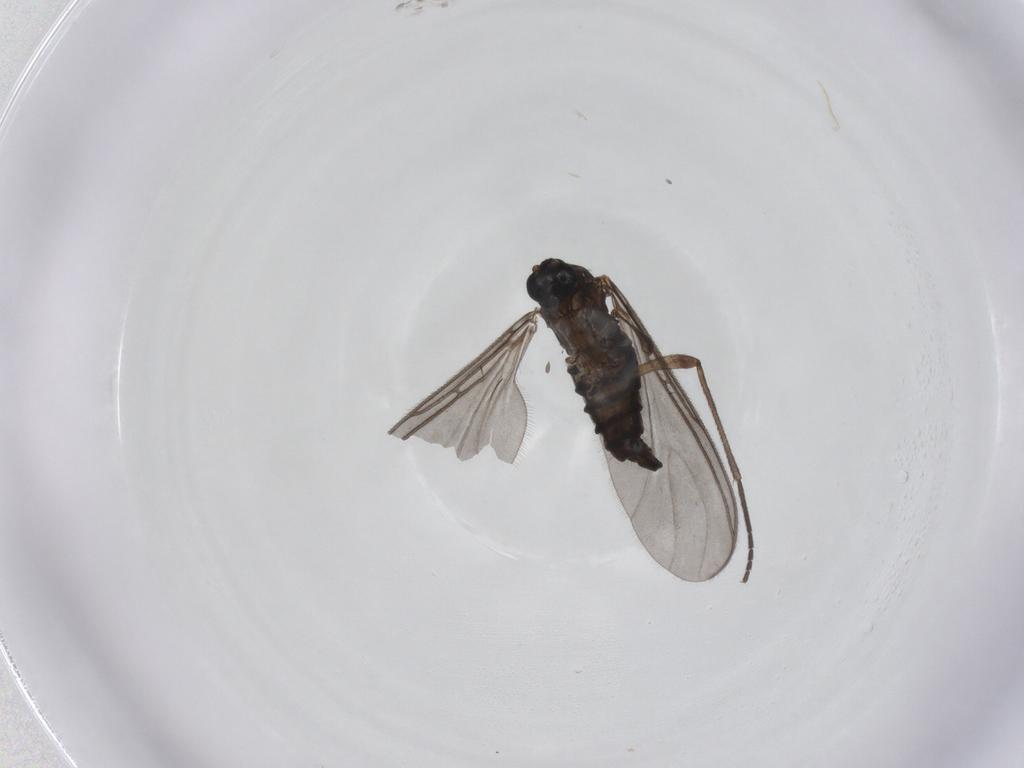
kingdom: Animalia
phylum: Arthropoda
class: Insecta
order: Diptera
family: Sciaridae
